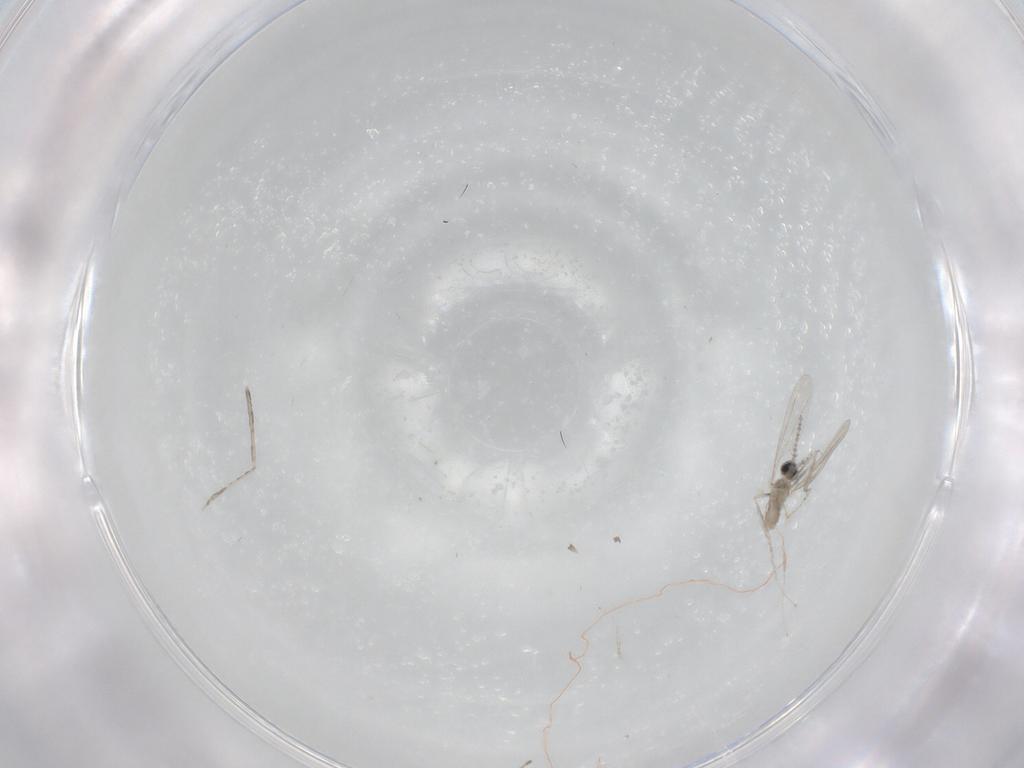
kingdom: Animalia
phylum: Arthropoda
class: Insecta
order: Diptera
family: Cecidomyiidae
